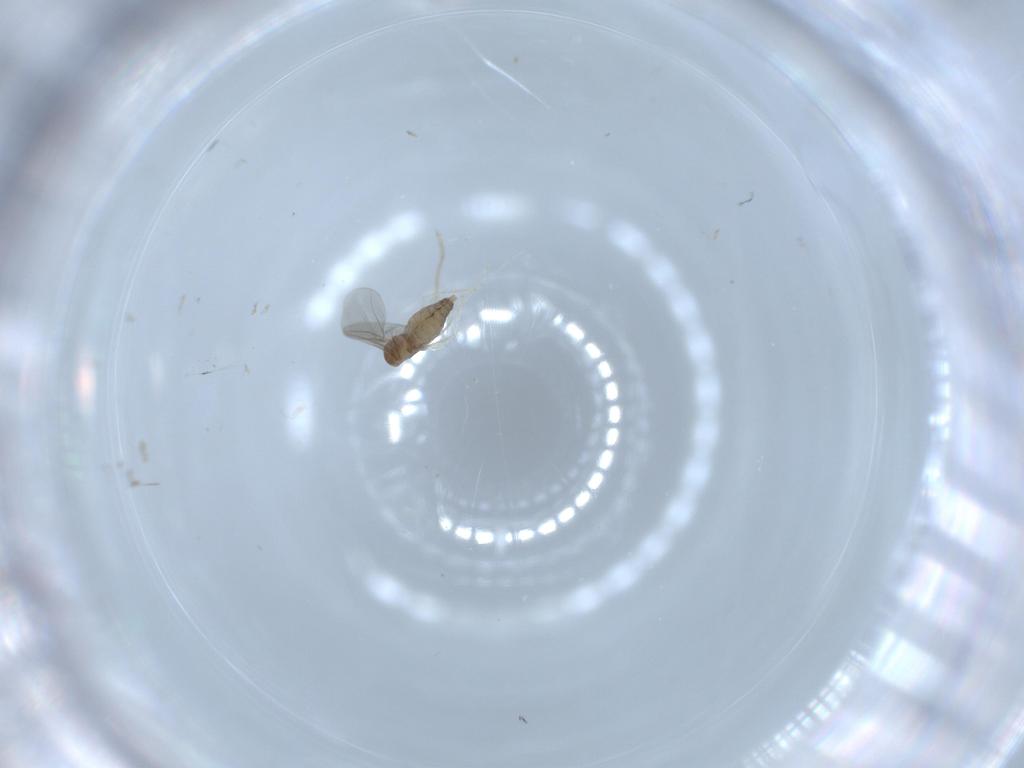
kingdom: Animalia
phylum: Arthropoda
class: Insecta
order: Diptera
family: Cecidomyiidae
